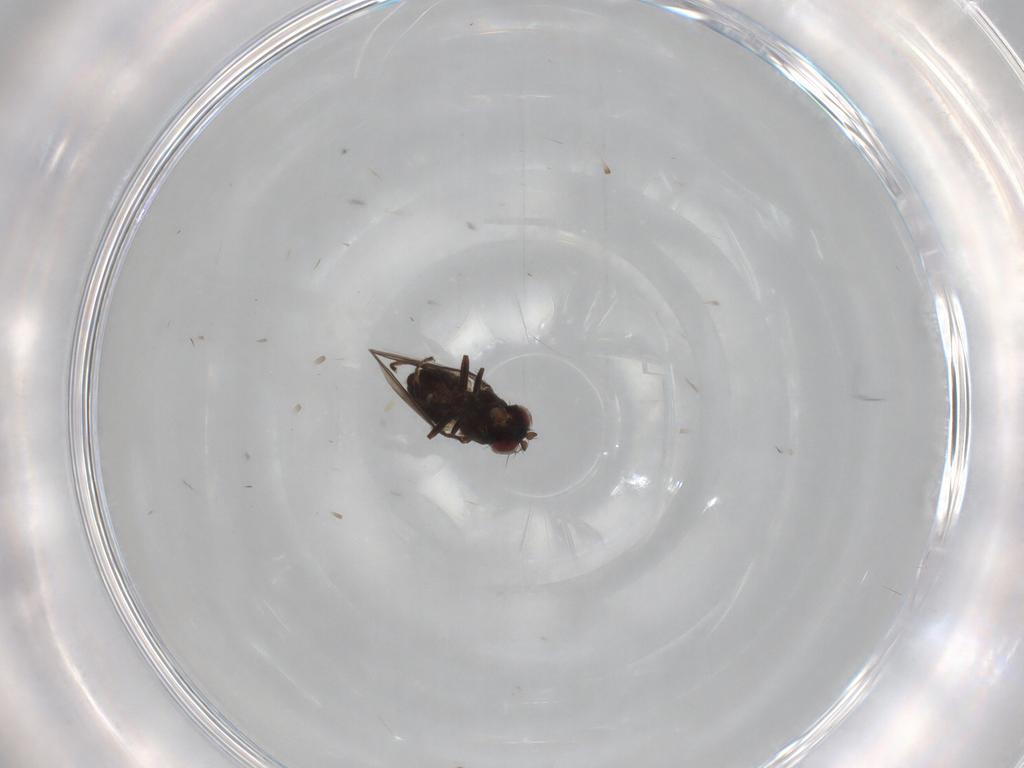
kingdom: Animalia
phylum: Arthropoda
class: Insecta
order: Diptera
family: Ephydridae
